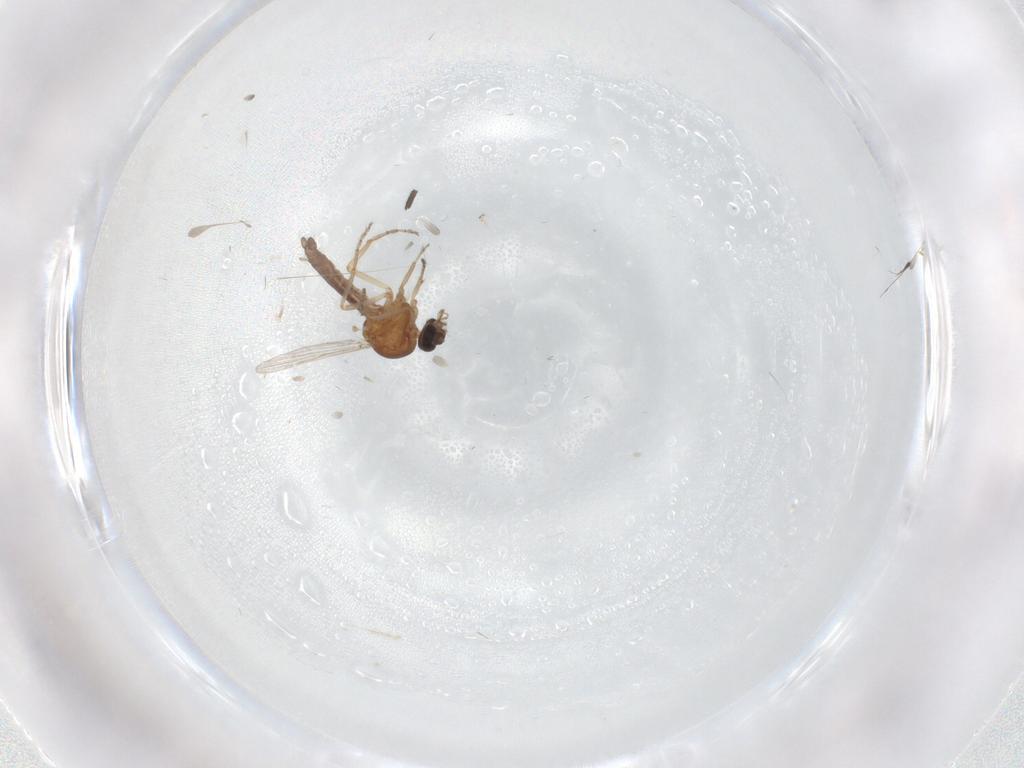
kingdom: Animalia
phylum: Arthropoda
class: Insecta
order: Diptera
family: Ceratopogonidae
